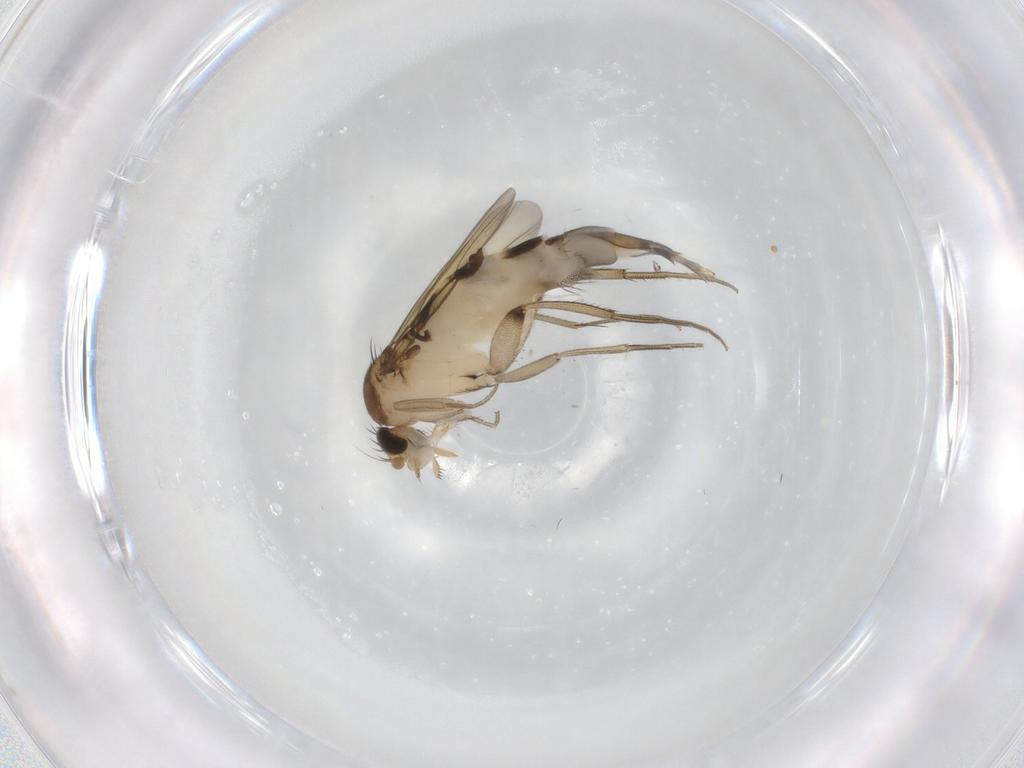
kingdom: Animalia
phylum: Arthropoda
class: Insecta
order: Diptera
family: Phoridae
